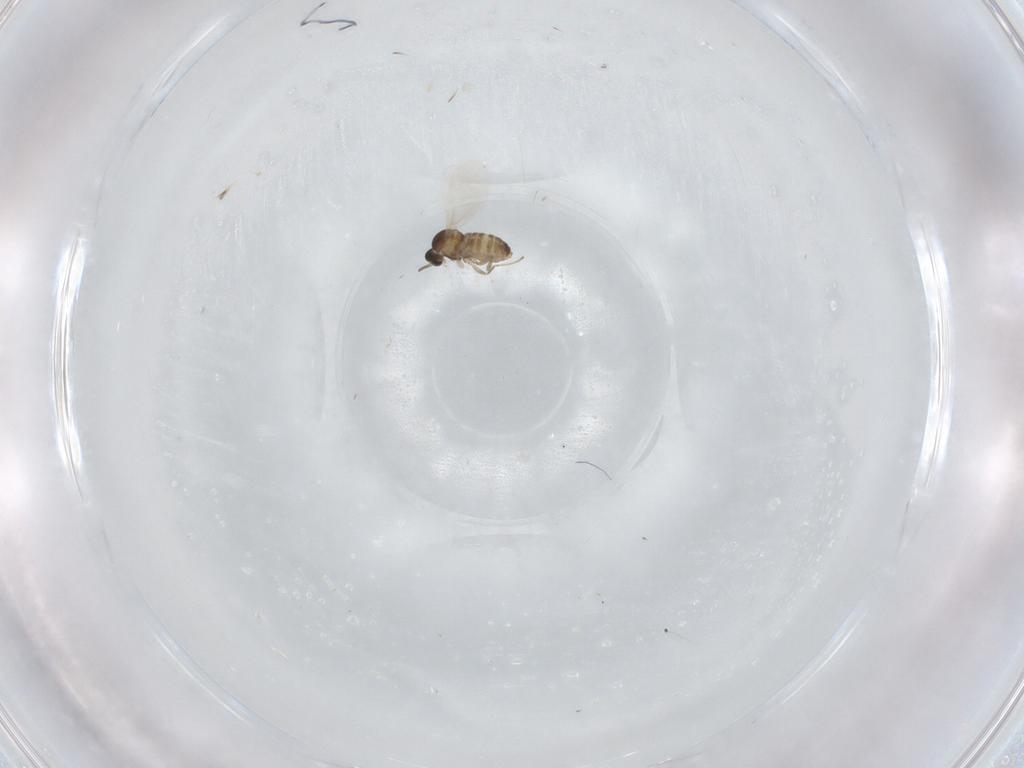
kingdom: Animalia
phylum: Arthropoda
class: Insecta
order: Diptera
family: Cecidomyiidae
